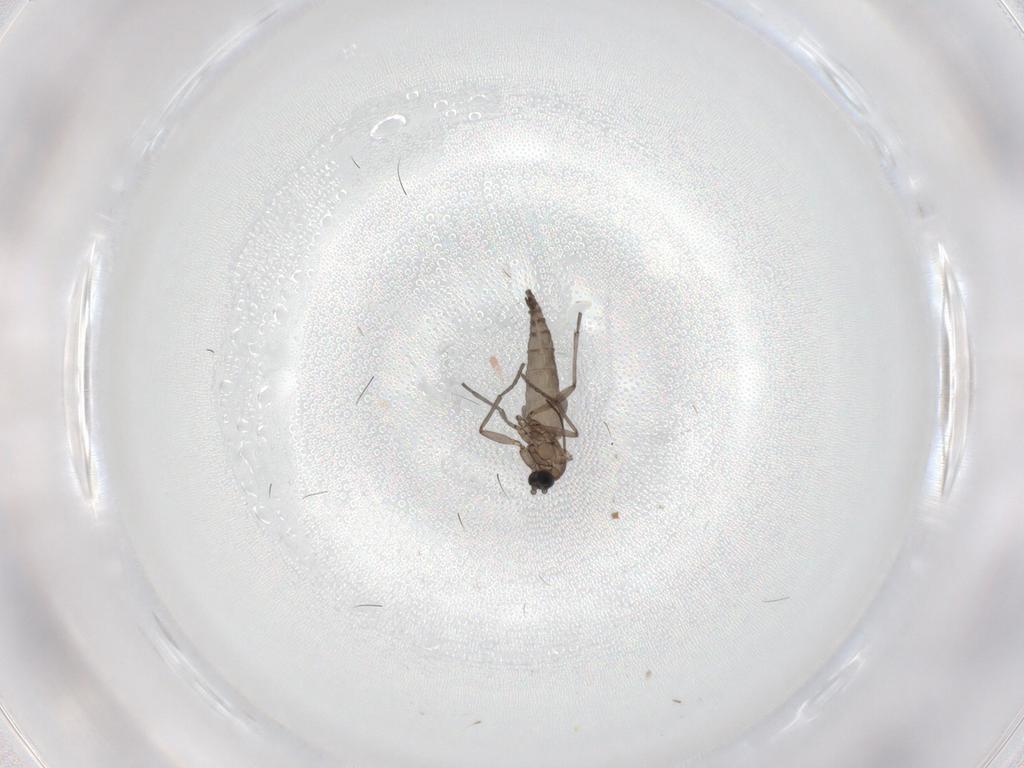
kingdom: Animalia
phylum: Arthropoda
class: Insecta
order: Diptera
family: Sciaridae
